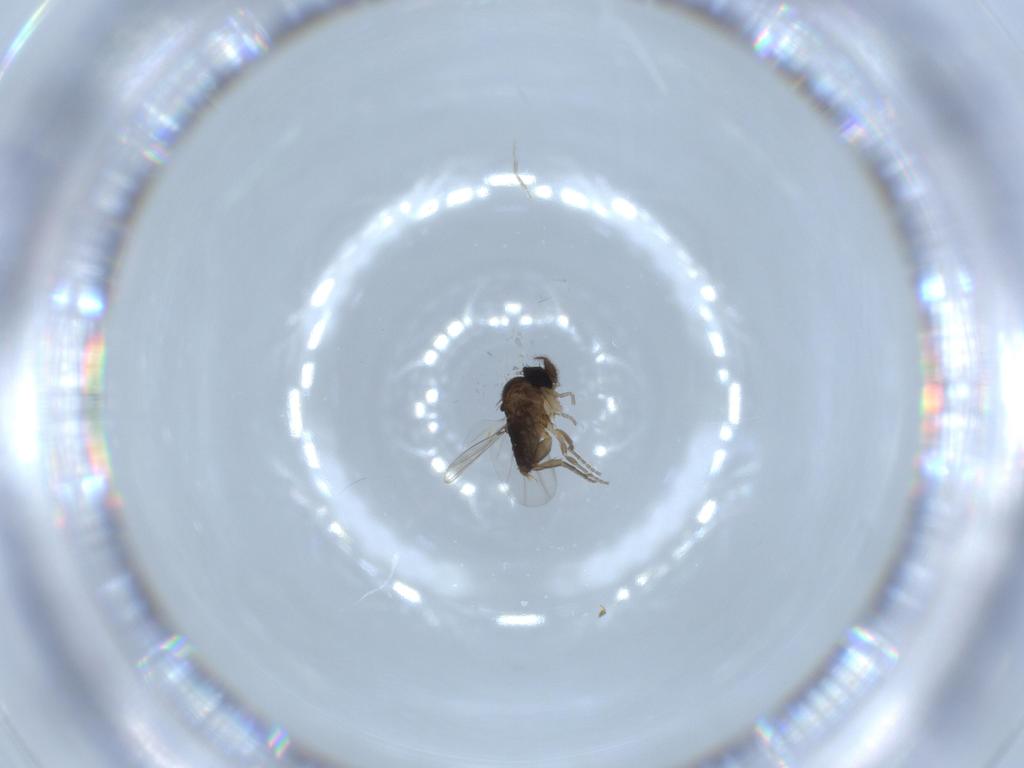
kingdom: Animalia
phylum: Arthropoda
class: Insecta
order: Diptera
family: Phoridae
